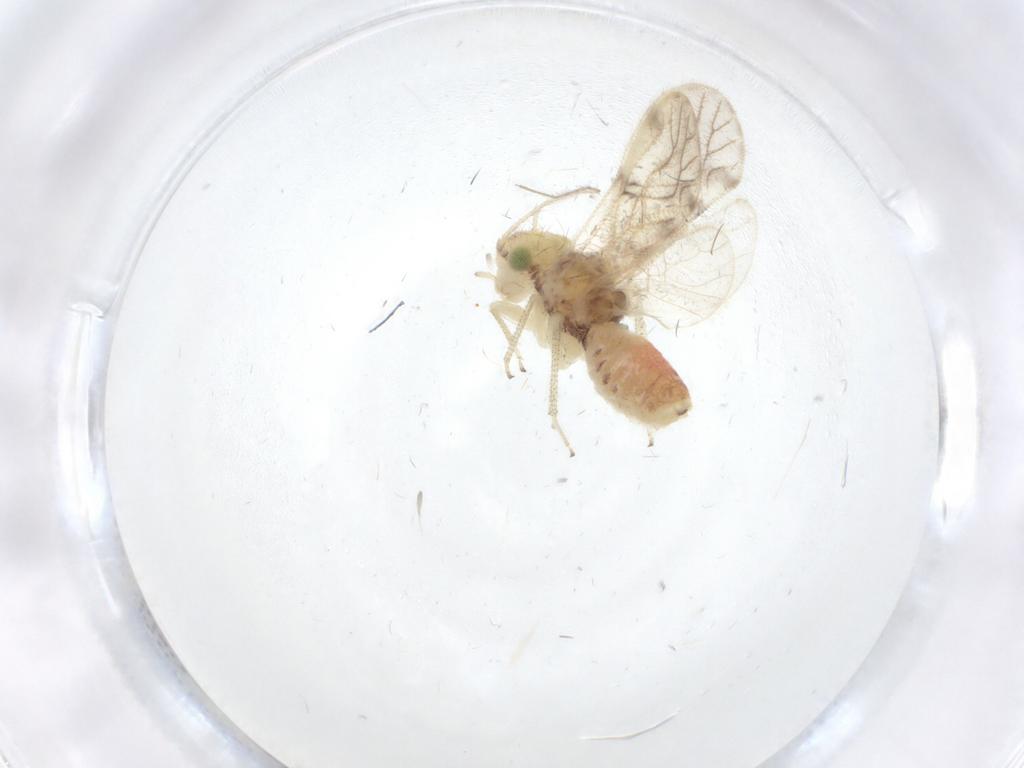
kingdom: Animalia
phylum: Arthropoda
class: Insecta
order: Psocodea
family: Pseudocaeciliidae
